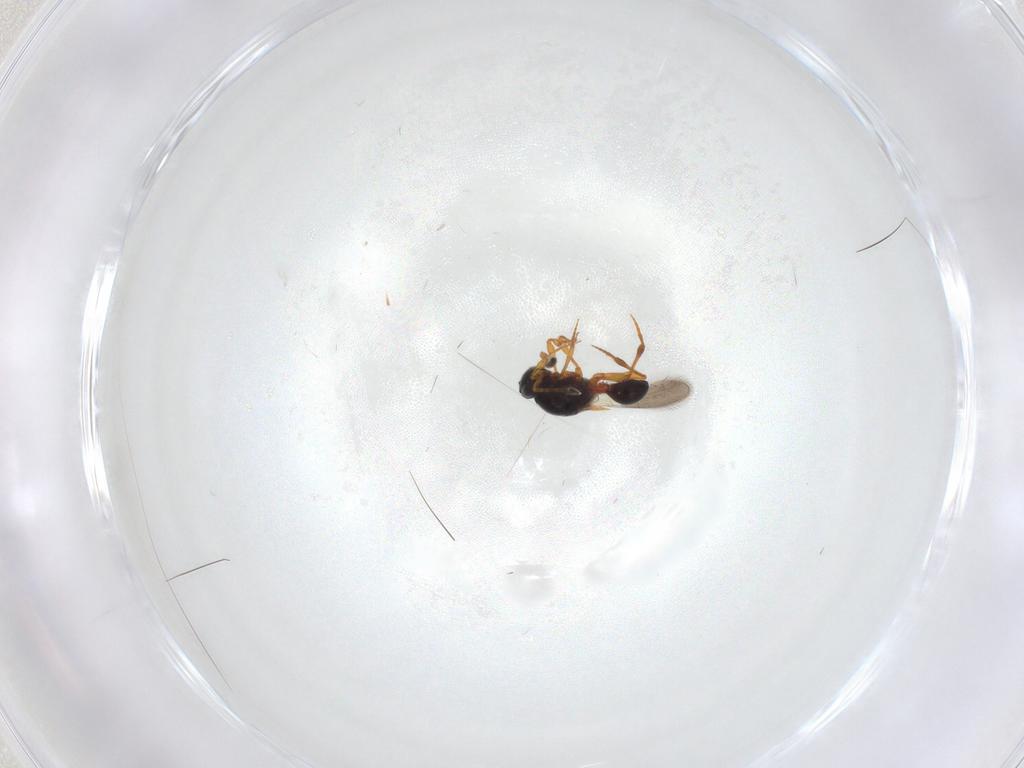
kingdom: Animalia
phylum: Arthropoda
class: Insecta
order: Hymenoptera
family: Platygastridae
